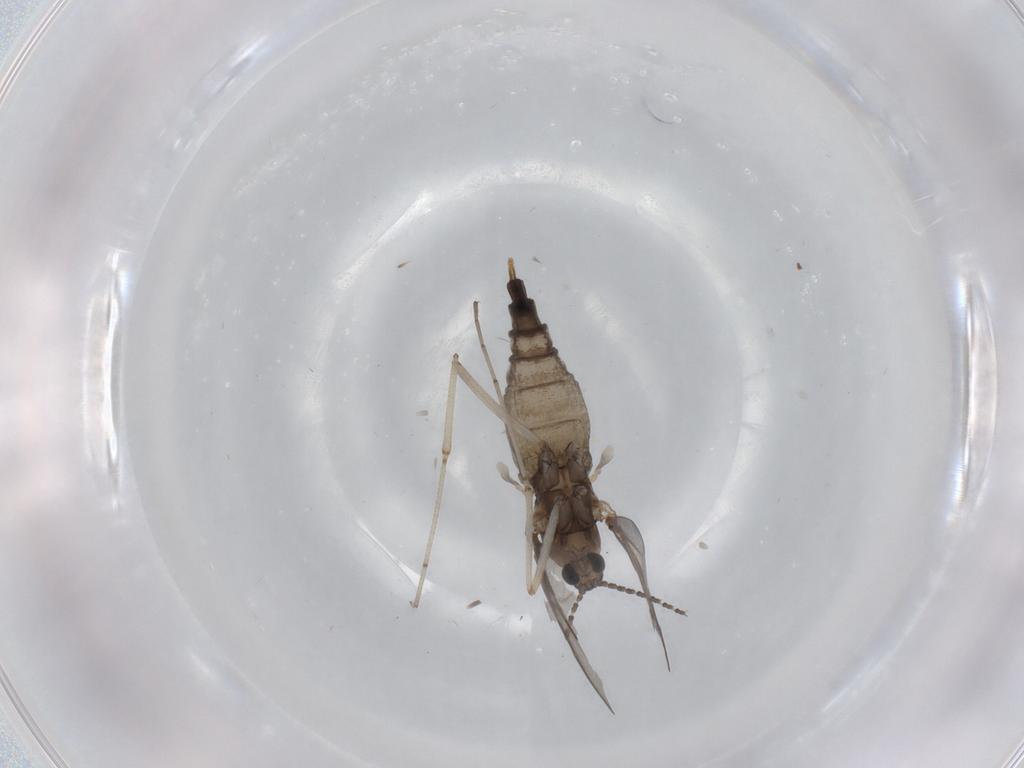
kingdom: Animalia
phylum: Arthropoda
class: Insecta
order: Diptera
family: Cecidomyiidae
